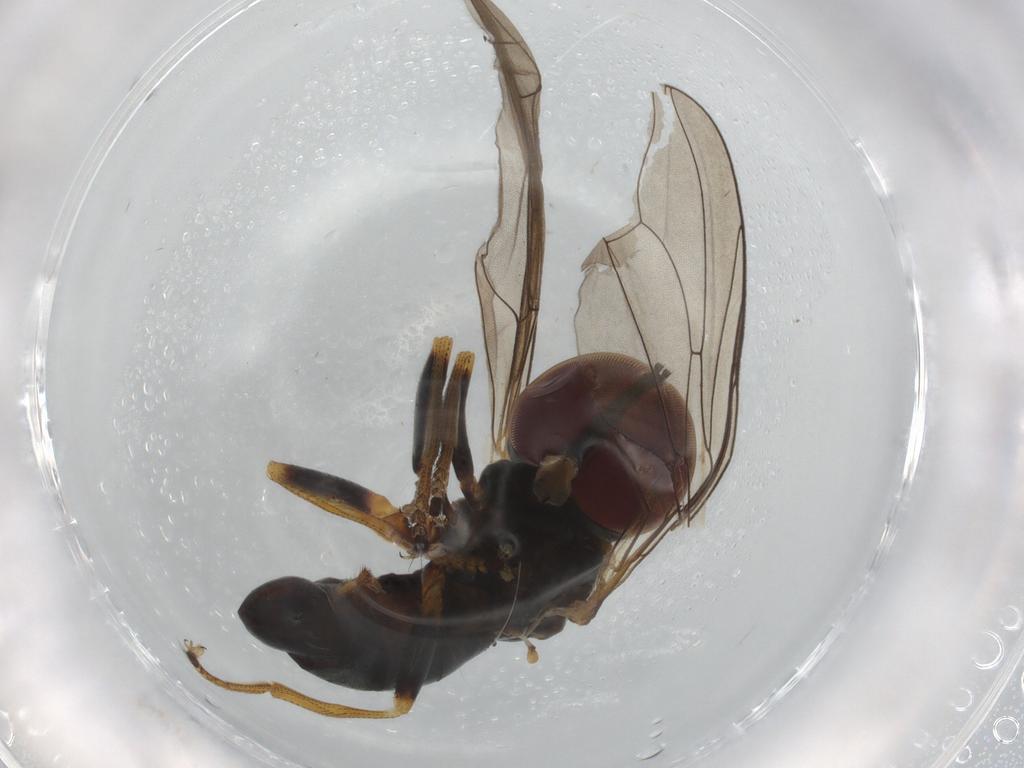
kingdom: Animalia
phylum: Arthropoda
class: Insecta
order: Diptera
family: Pipunculidae
